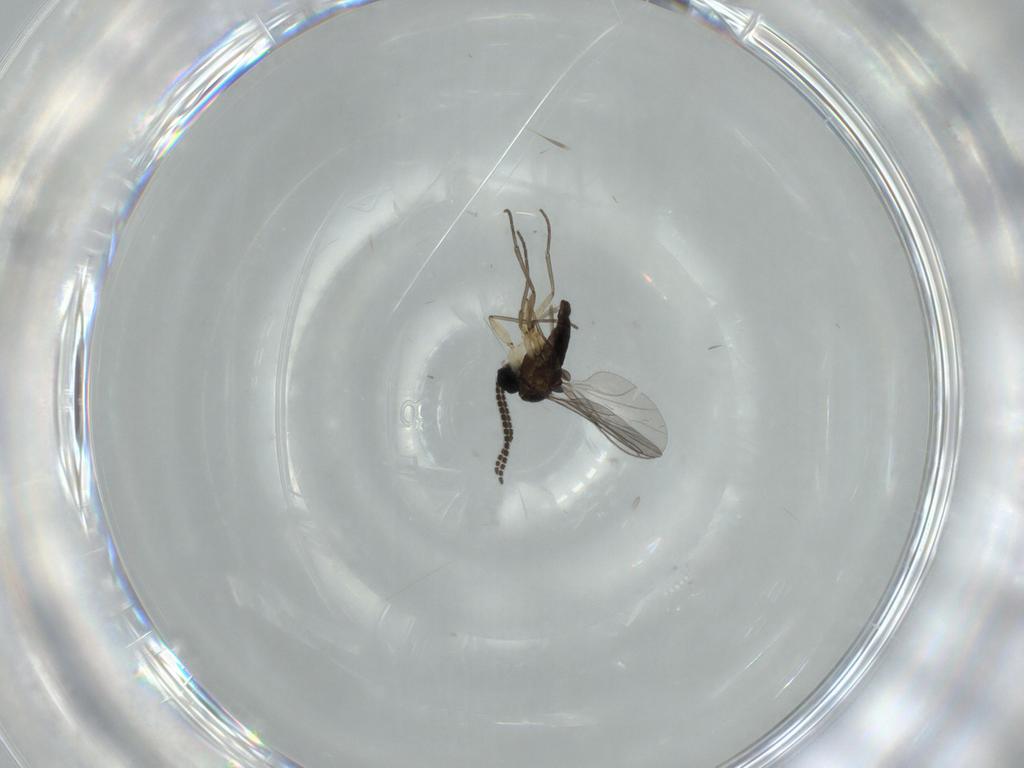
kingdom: Animalia
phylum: Arthropoda
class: Insecta
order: Diptera
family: Sciaridae
